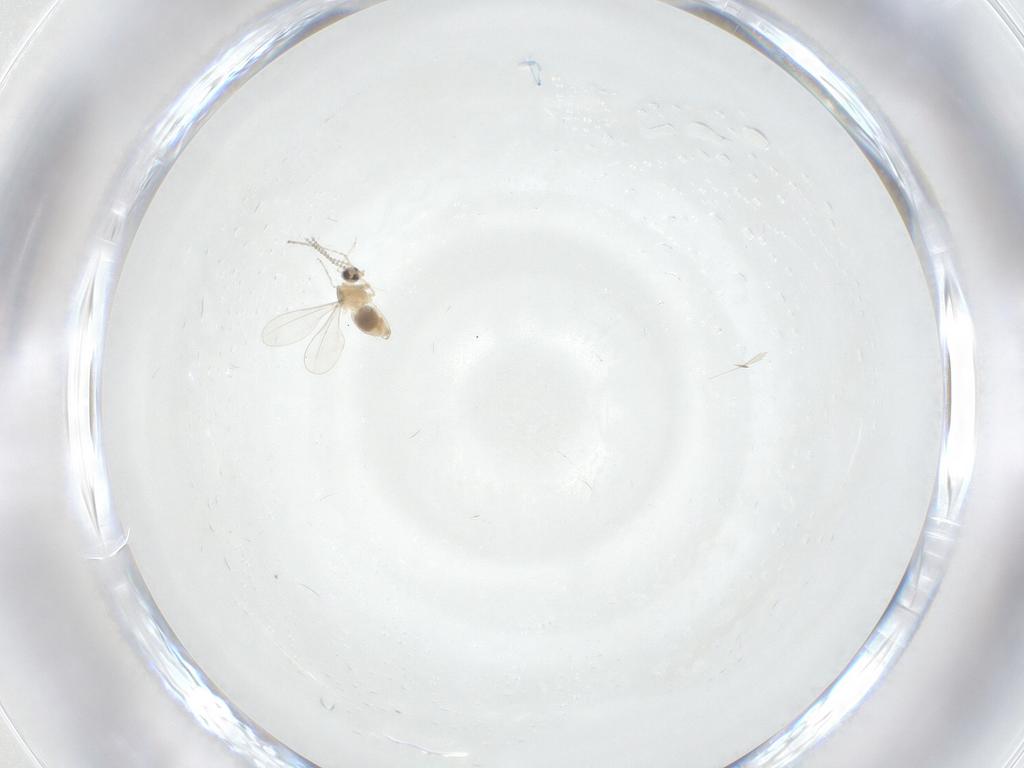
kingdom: Animalia
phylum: Arthropoda
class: Insecta
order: Diptera
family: Cecidomyiidae
